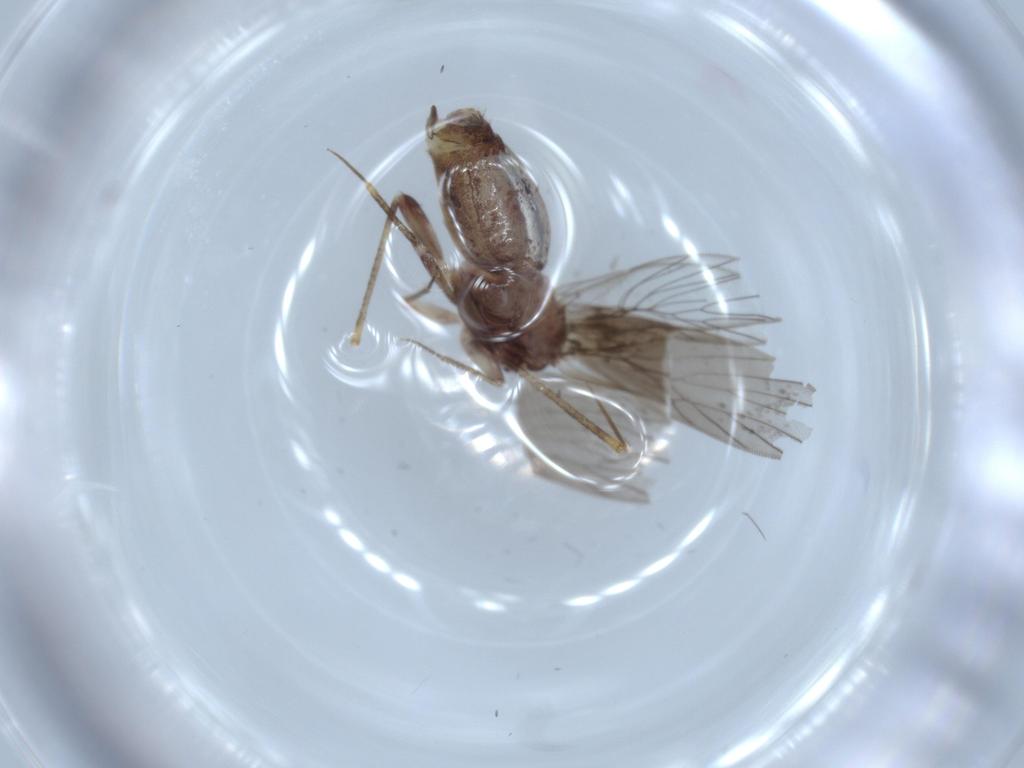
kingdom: Animalia
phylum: Arthropoda
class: Insecta
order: Psocodea
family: Lepidopsocidae
